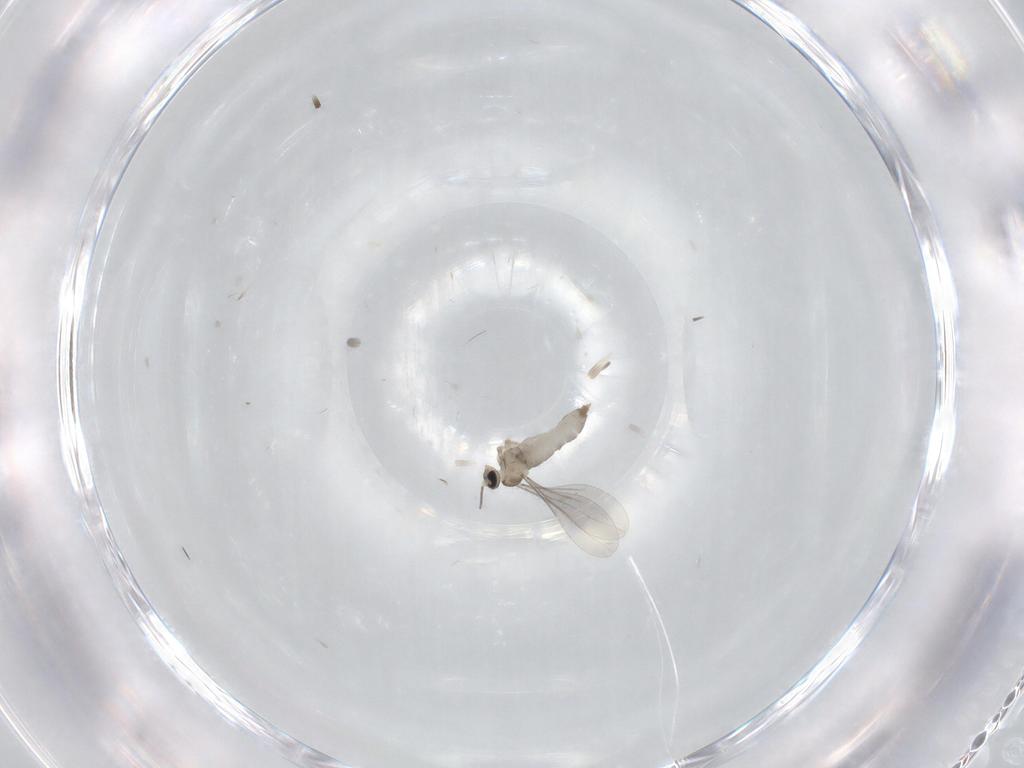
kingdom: Animalia
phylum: Arthropoda
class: Insecta
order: Diptera
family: Cecidomyiidae
